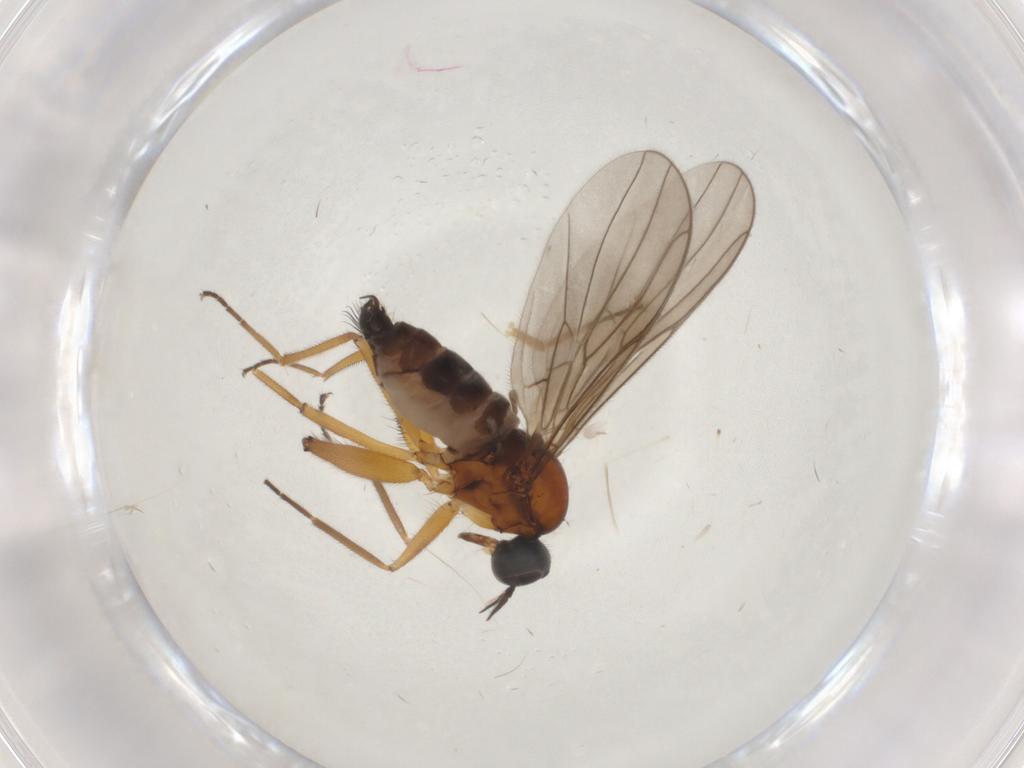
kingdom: Animalia
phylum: Arthropoda
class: Insecta
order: Diptera
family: Hybotidae
